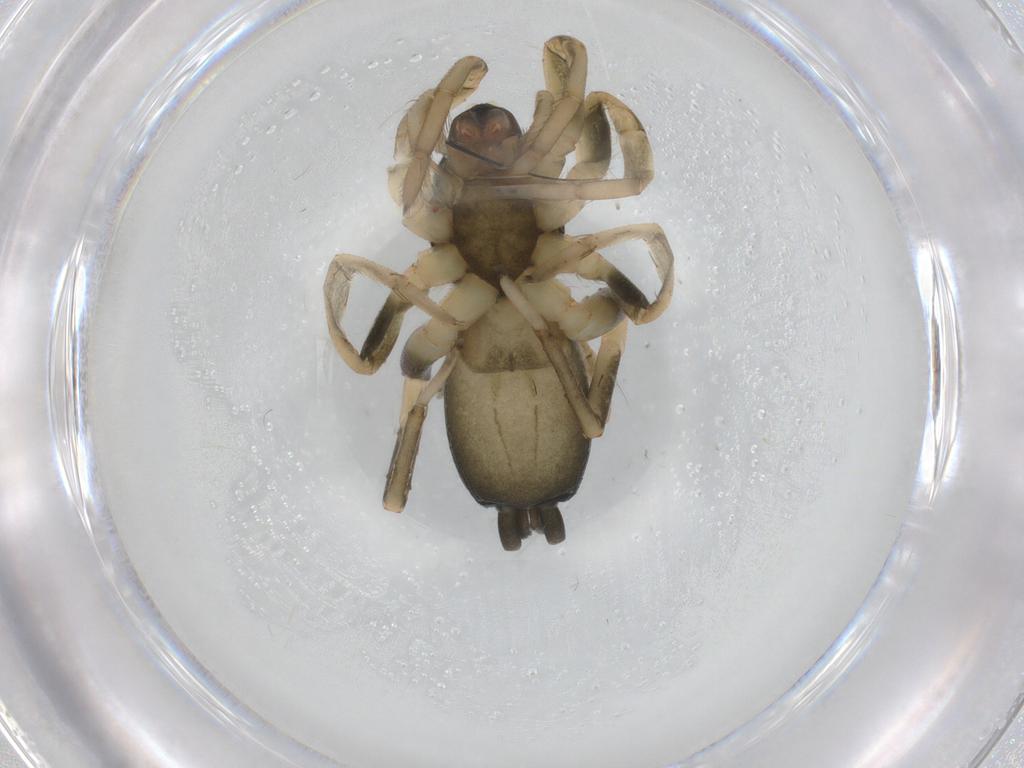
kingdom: Animalia
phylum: Arthropoda
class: Arachnida
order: Araneae
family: Gnaphosidae
